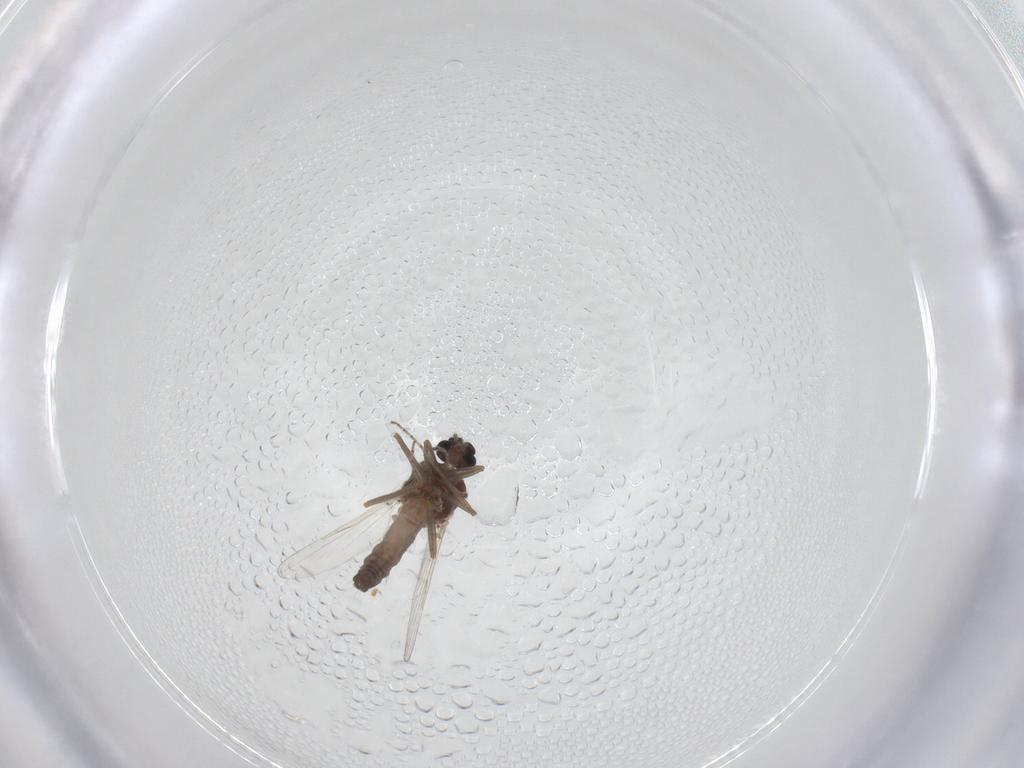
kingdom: Animalia
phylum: Arthropoda
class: Insecta
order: Diptera
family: Ceratopogonidae
